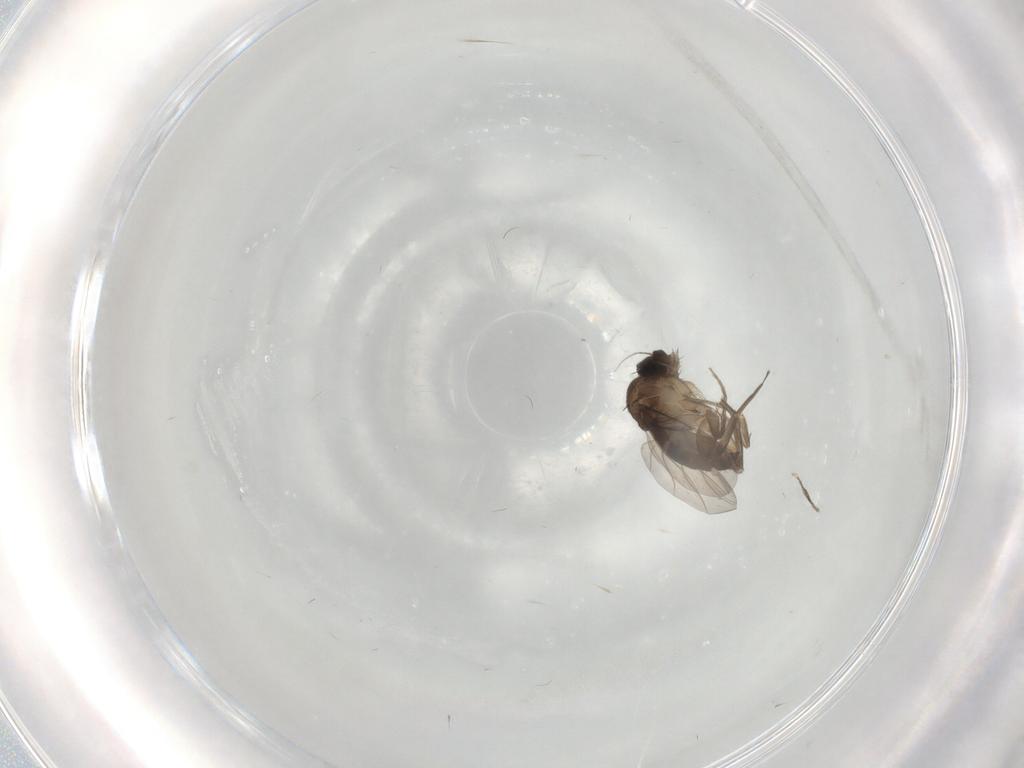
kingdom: Animalia
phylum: Arthropoda
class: Insecta
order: Diptera
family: Phoridae
